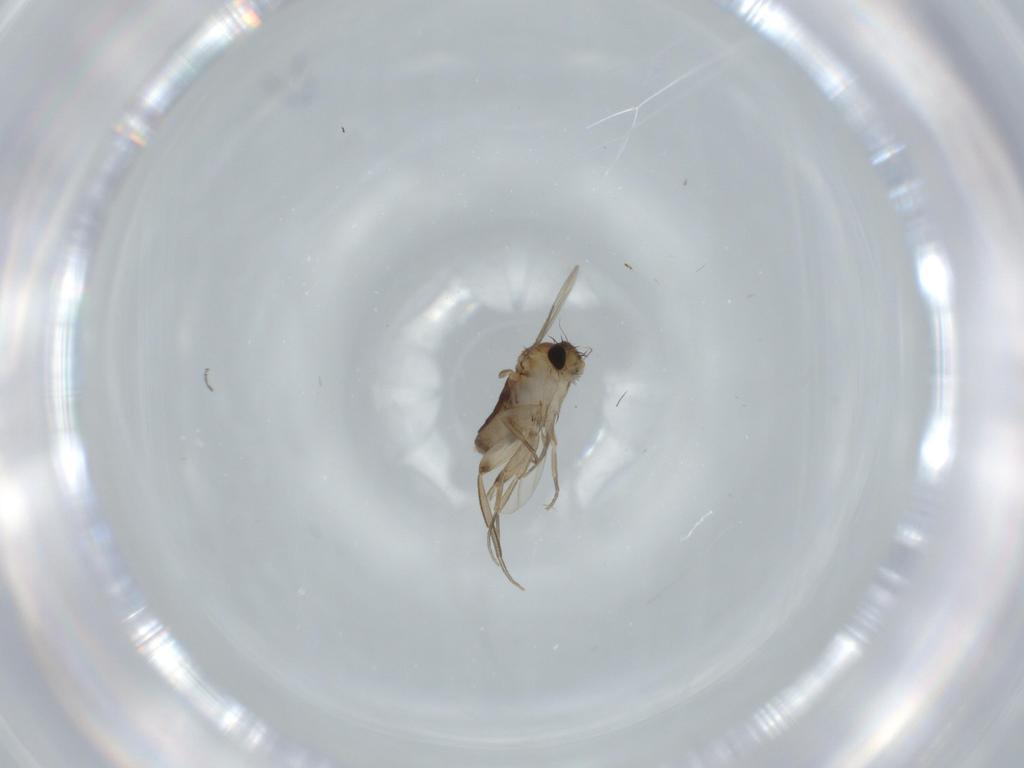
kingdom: Animalia
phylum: Arthropoda
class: Insecta
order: Diptera
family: Phoridae
